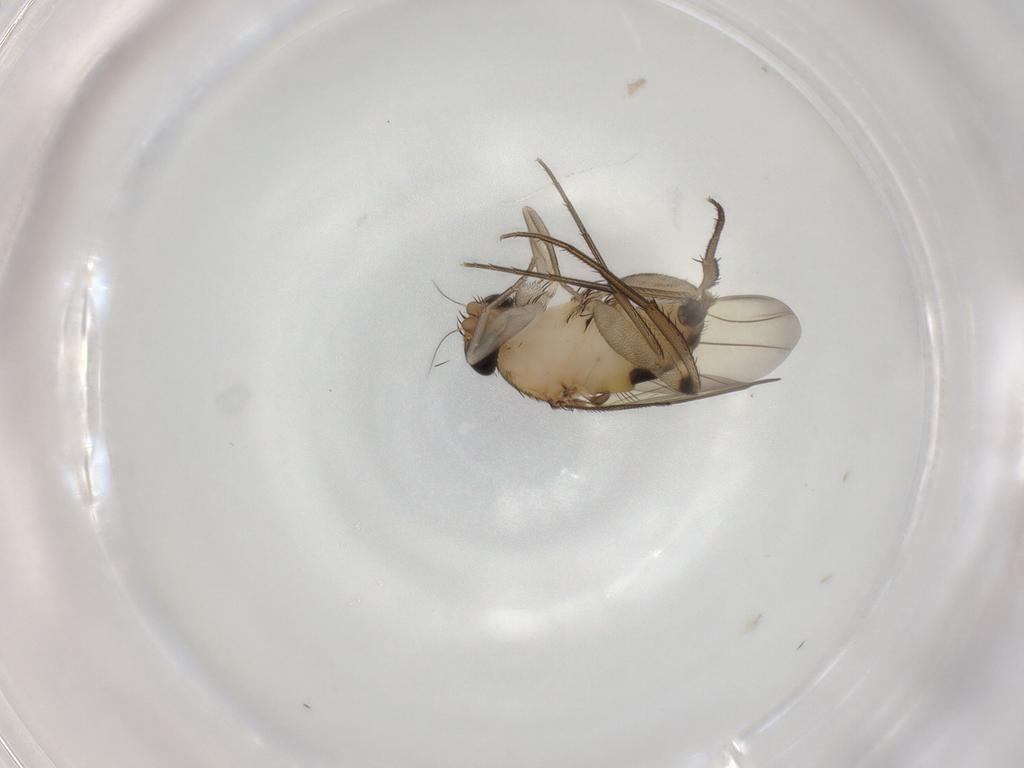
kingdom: Animalia
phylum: Arthropoda
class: Insecta
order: Diptera
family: Phoridae
